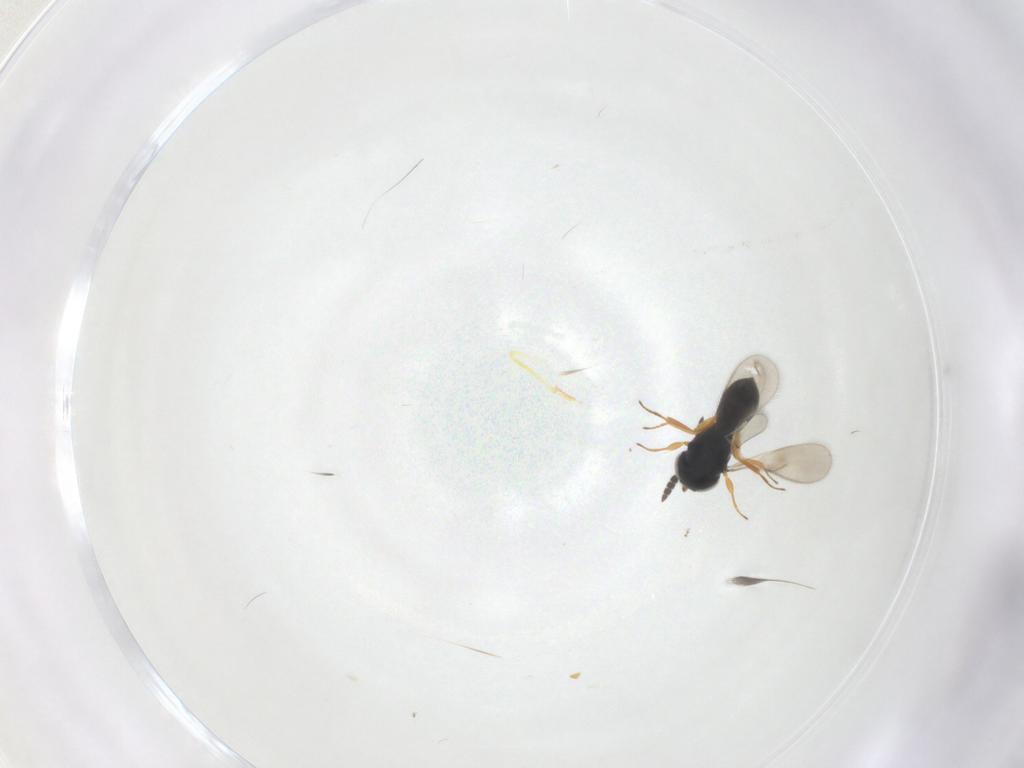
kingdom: Animalia
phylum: Arthropoda
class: Insecta
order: Hymenoptera
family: Scelionidae
